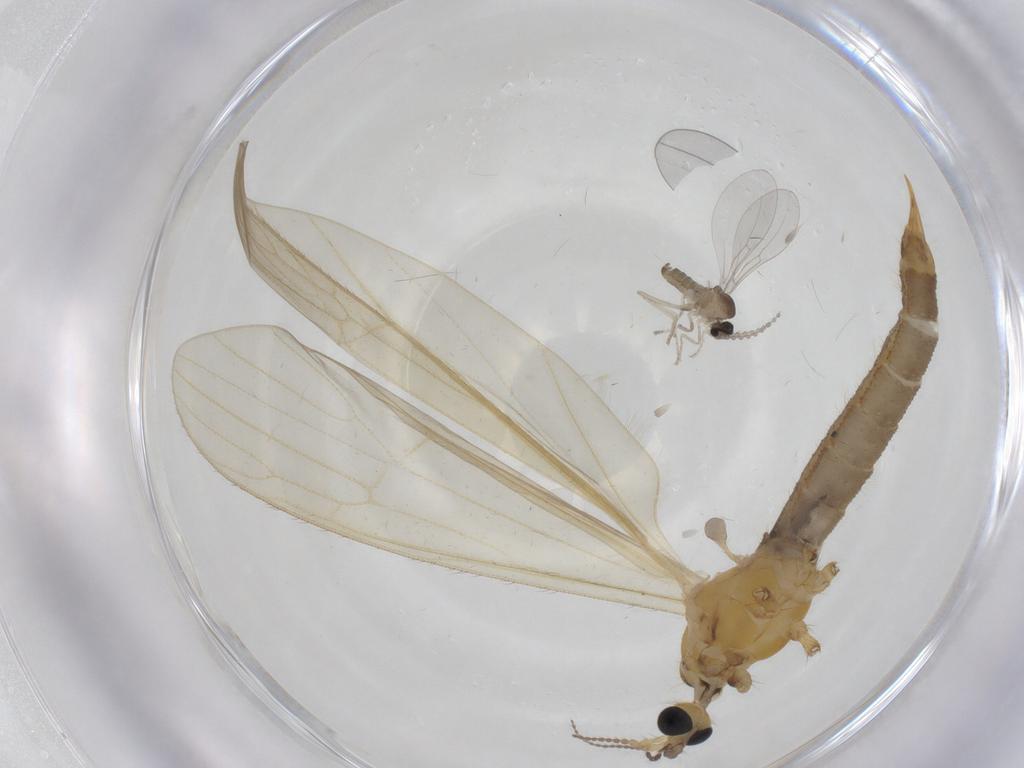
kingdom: Animalia
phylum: Arthropoda
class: Insecta
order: Diptera
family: Limoniidae
